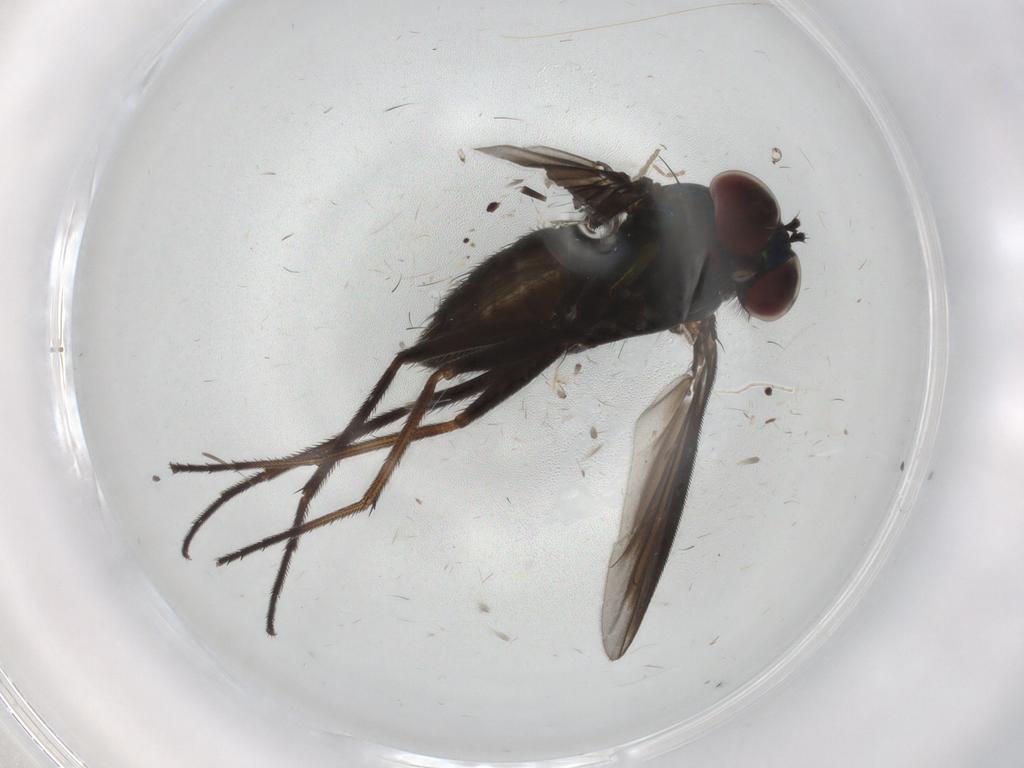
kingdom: Animalia
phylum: Arthropoda
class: Insecta
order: Diptera
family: Dolichopodidae
